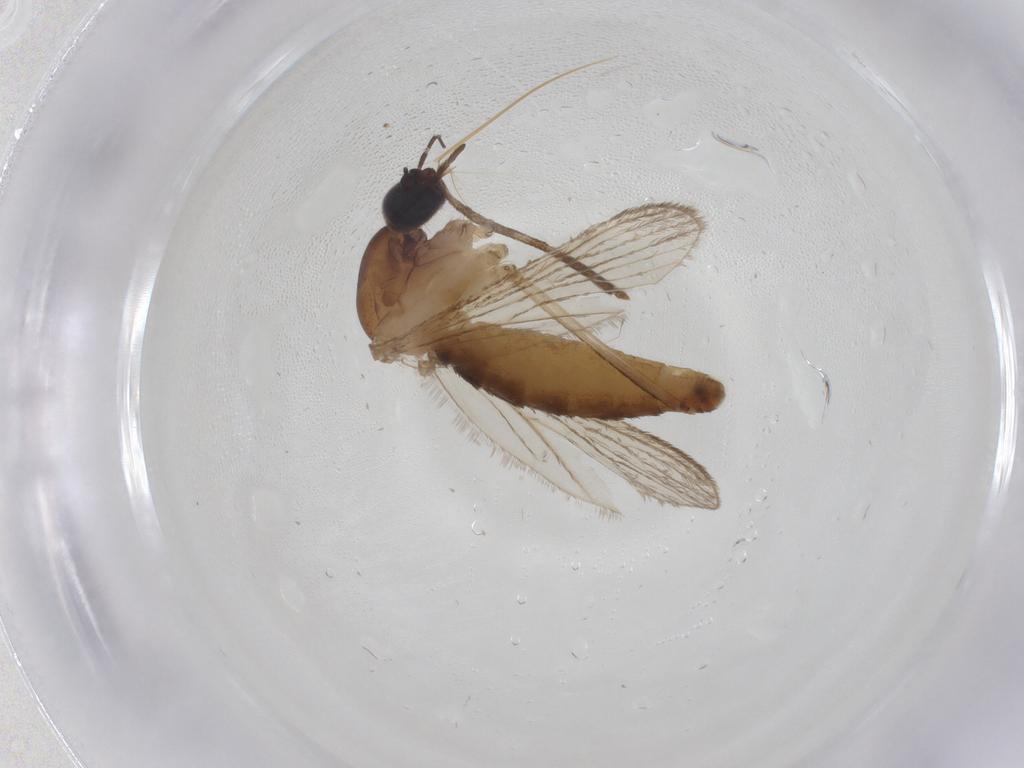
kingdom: Animalia
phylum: Arthropoda
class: Insecta
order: Diptera
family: Culicidae
